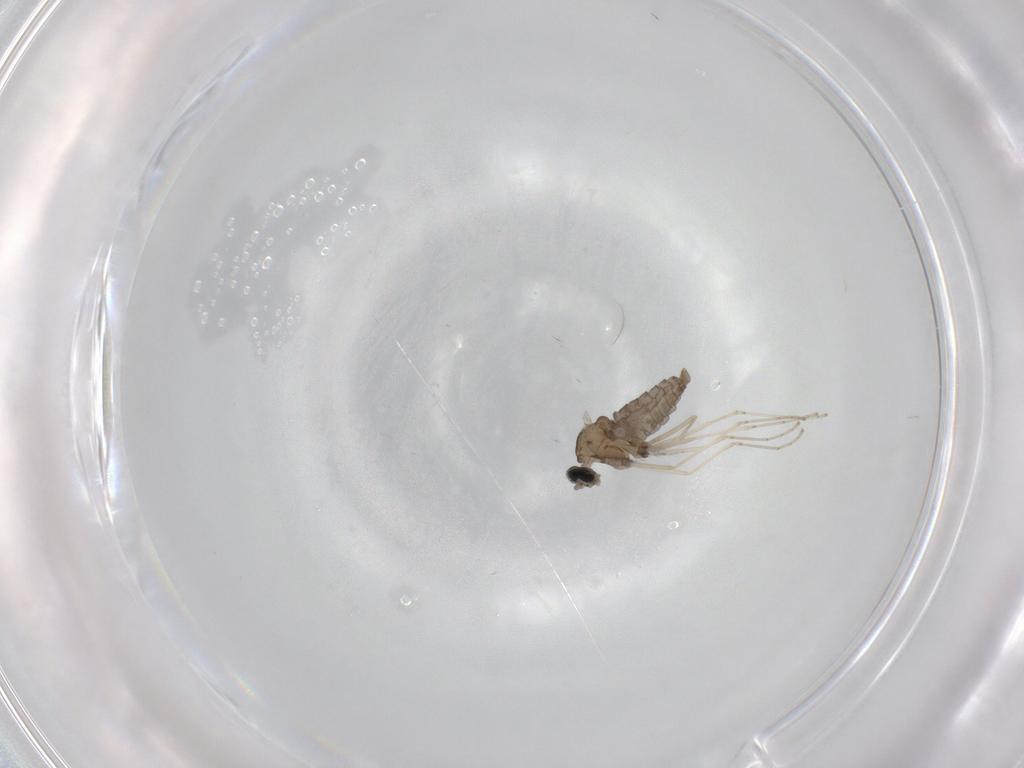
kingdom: Animalia
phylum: Arthropoda
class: Insecta
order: Diptera
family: Cecidomyiidae
